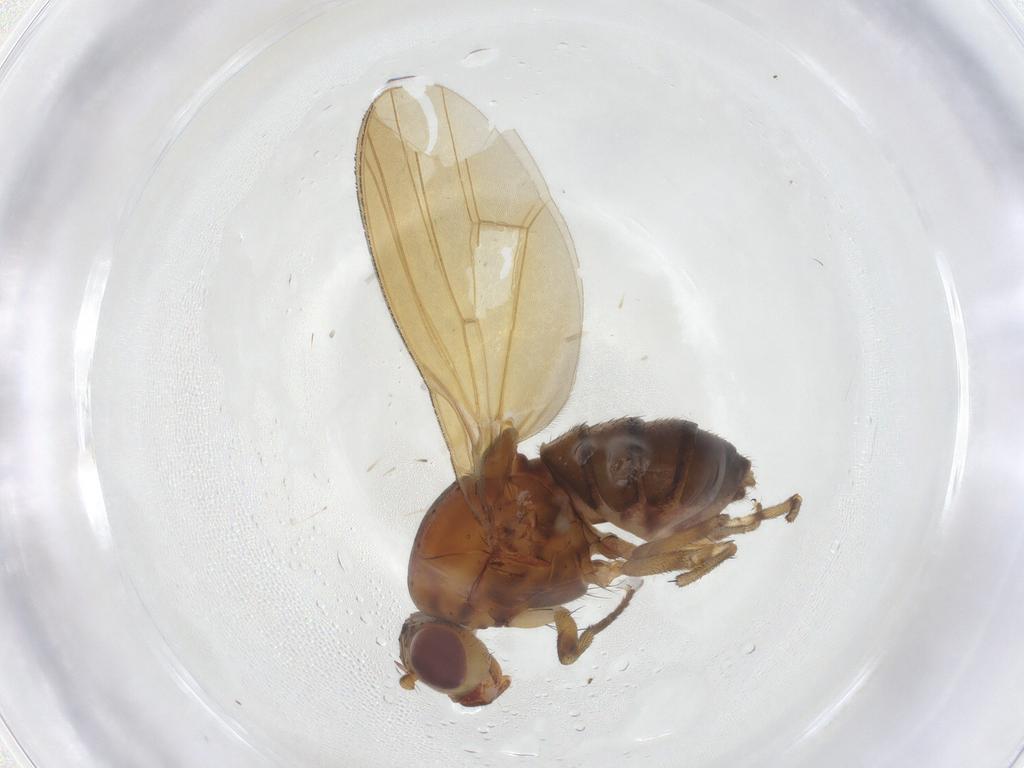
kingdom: Animalia
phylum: Arthropoda
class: Insecta
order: Diptera
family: Lauxaniidae
